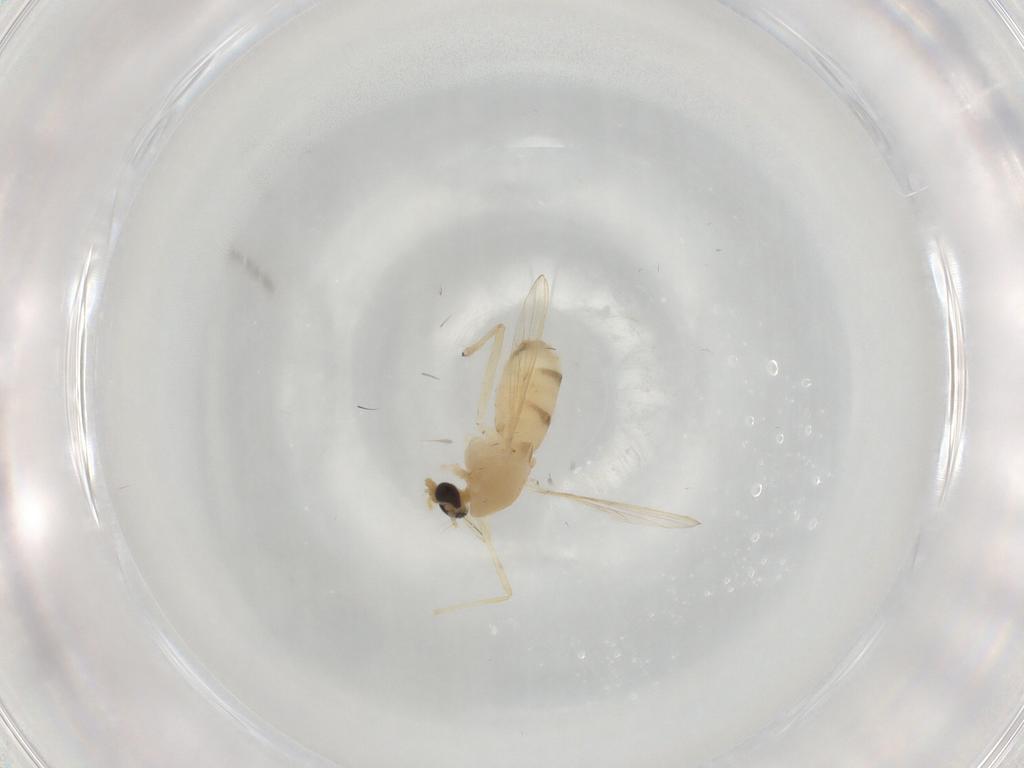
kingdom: Animalia
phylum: Arthropoda
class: Insecta
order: Diptera
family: Chironomidae
